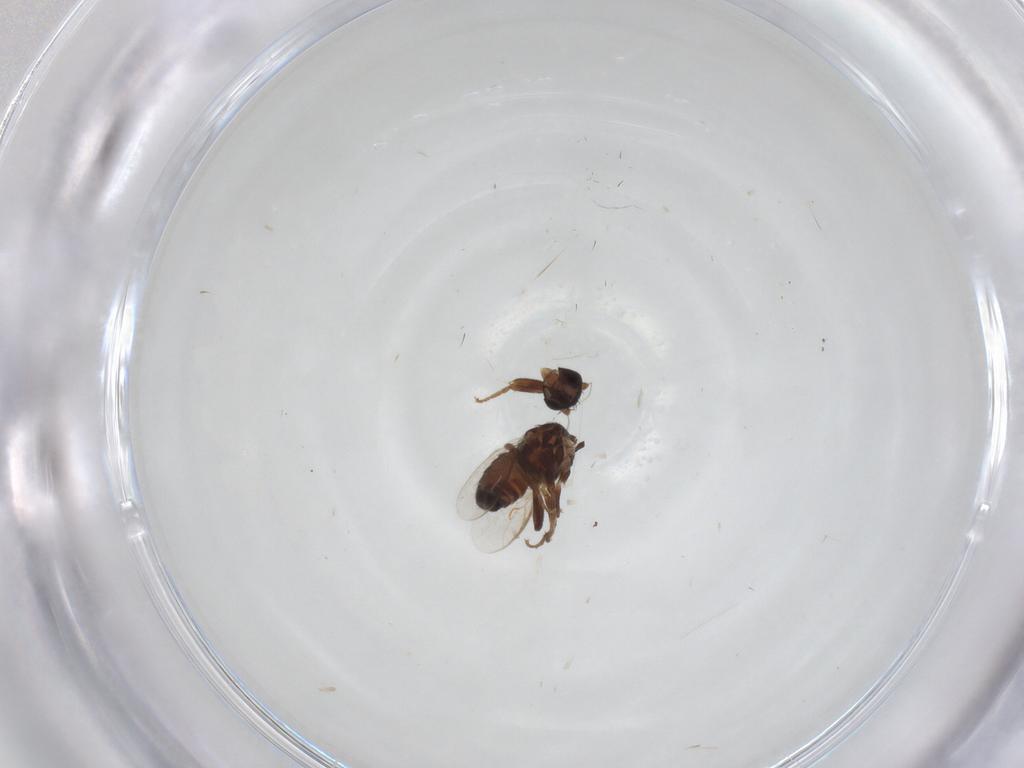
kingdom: Animalia
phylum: Arthropoda
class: Insecta
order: Diptera
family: Sphaeroceridae
